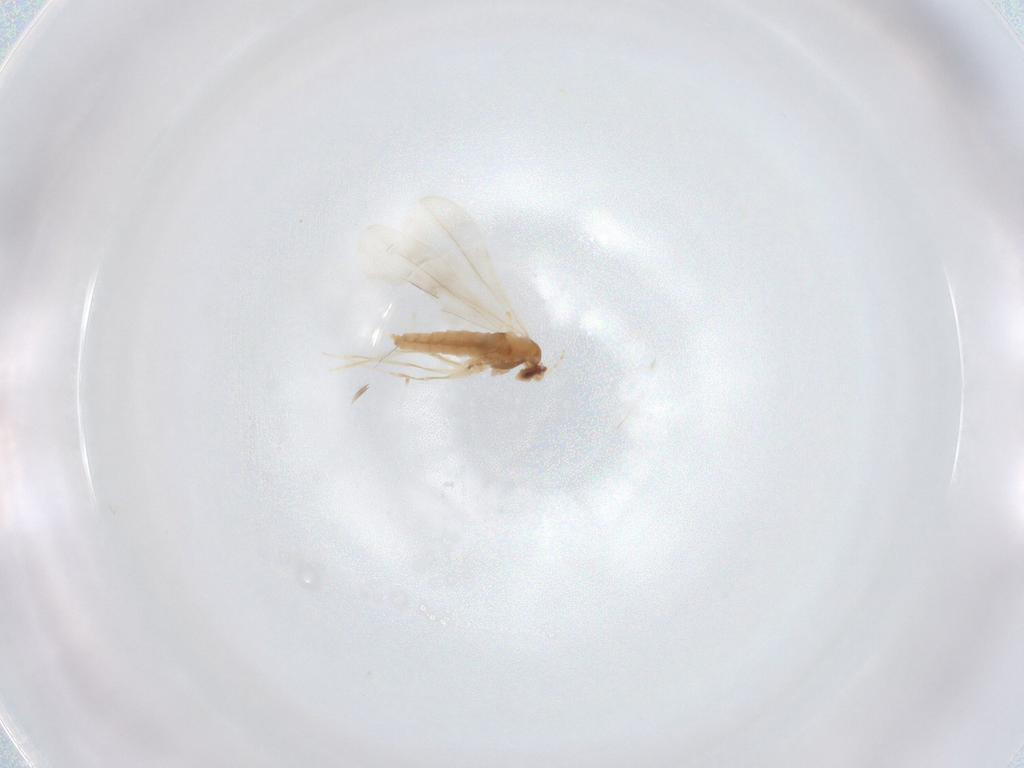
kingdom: Animalia
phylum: Arthropoda
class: Insecta
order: Diptera
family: Cecidomyiidae
